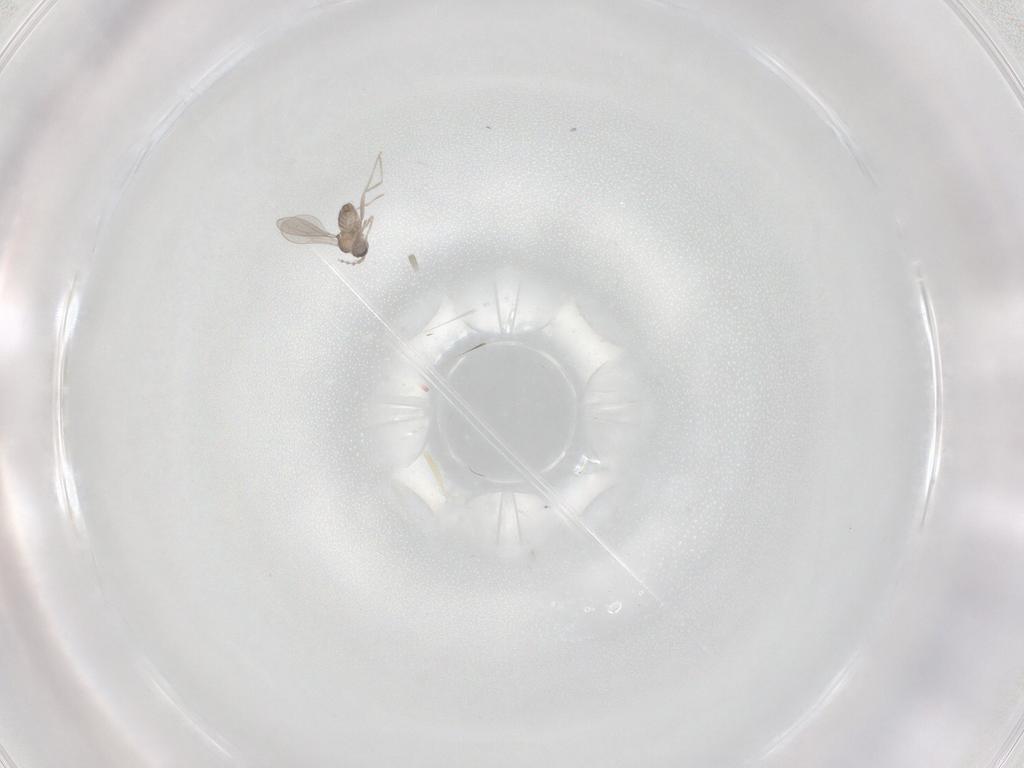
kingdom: Animalia
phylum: Arthropoda
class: Insecta
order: Diptera
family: Cecidomyiidae
